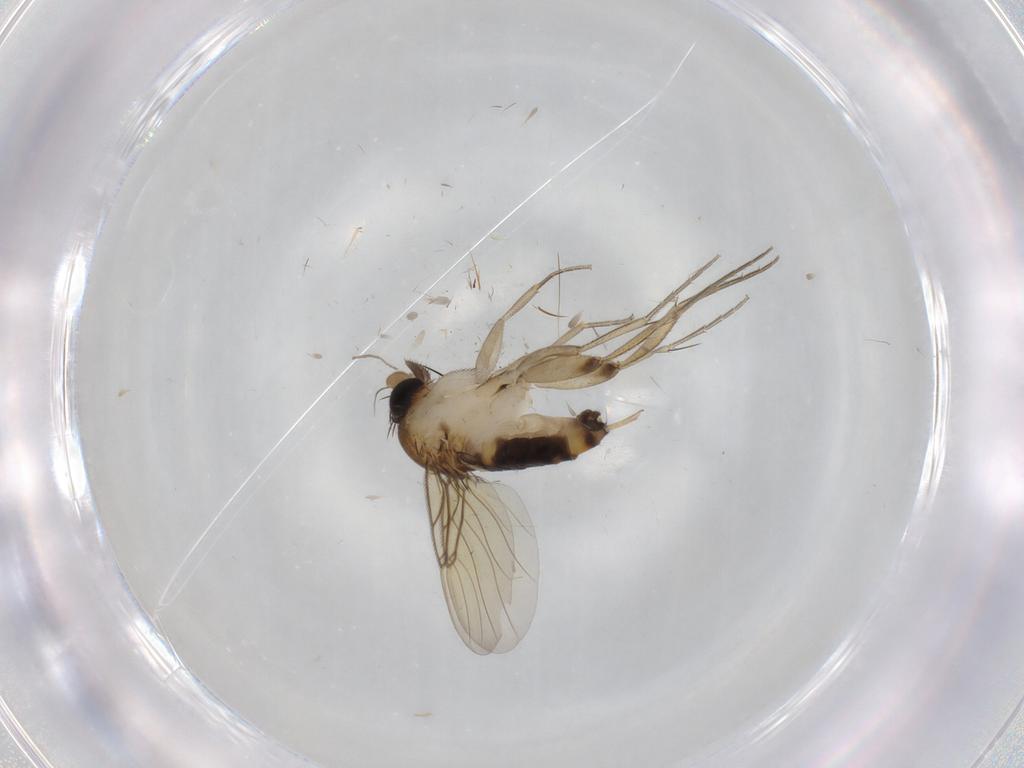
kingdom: Animalia
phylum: Arthropoda
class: Insecta
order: Diptera
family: Phoridae
